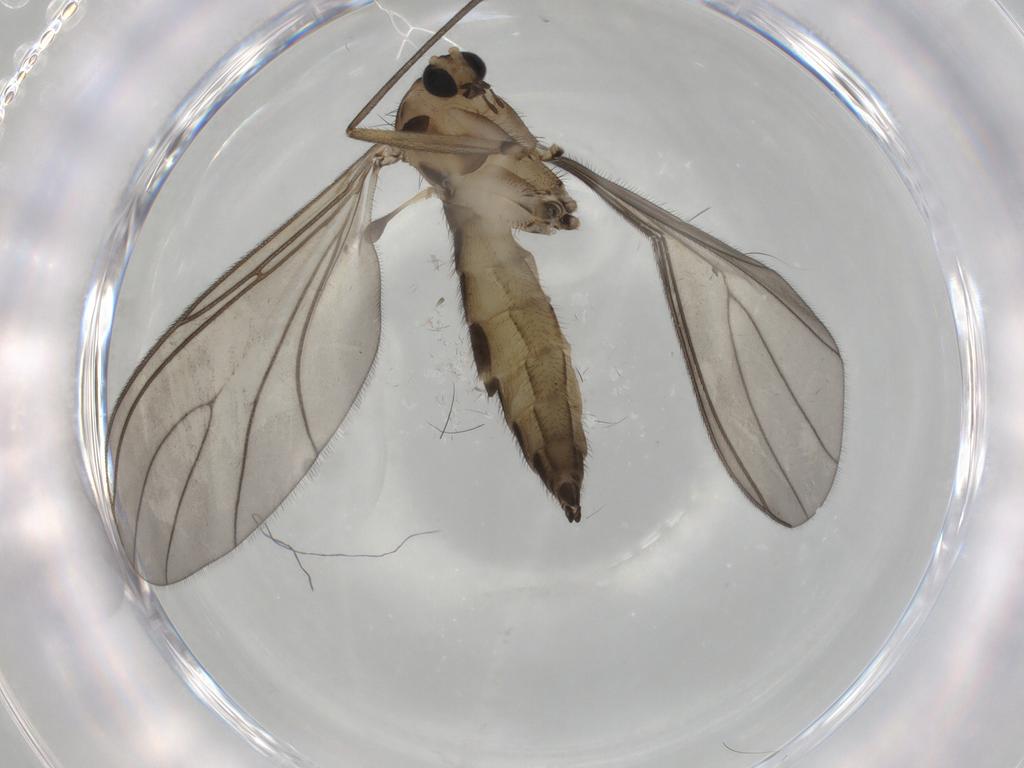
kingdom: Animalia
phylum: Arthropoda
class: Insecta
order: Diptera
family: Sciaridae
